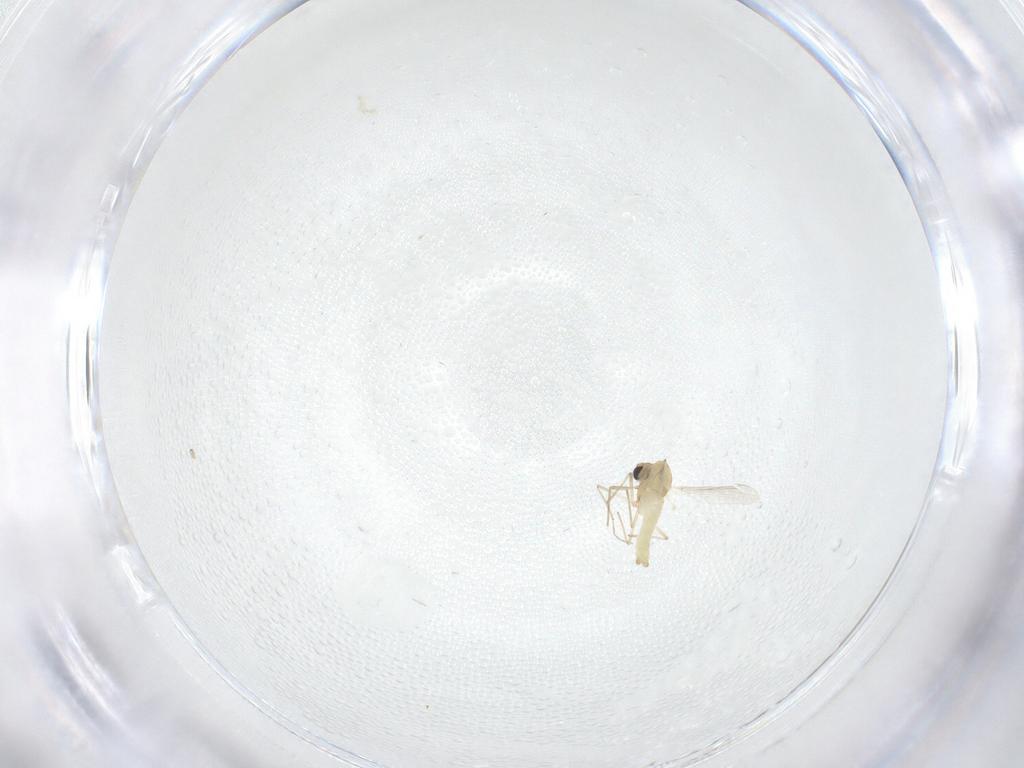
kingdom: Animalia
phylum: Arthropoda
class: Insecta
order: Diptera
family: Chironomidae
